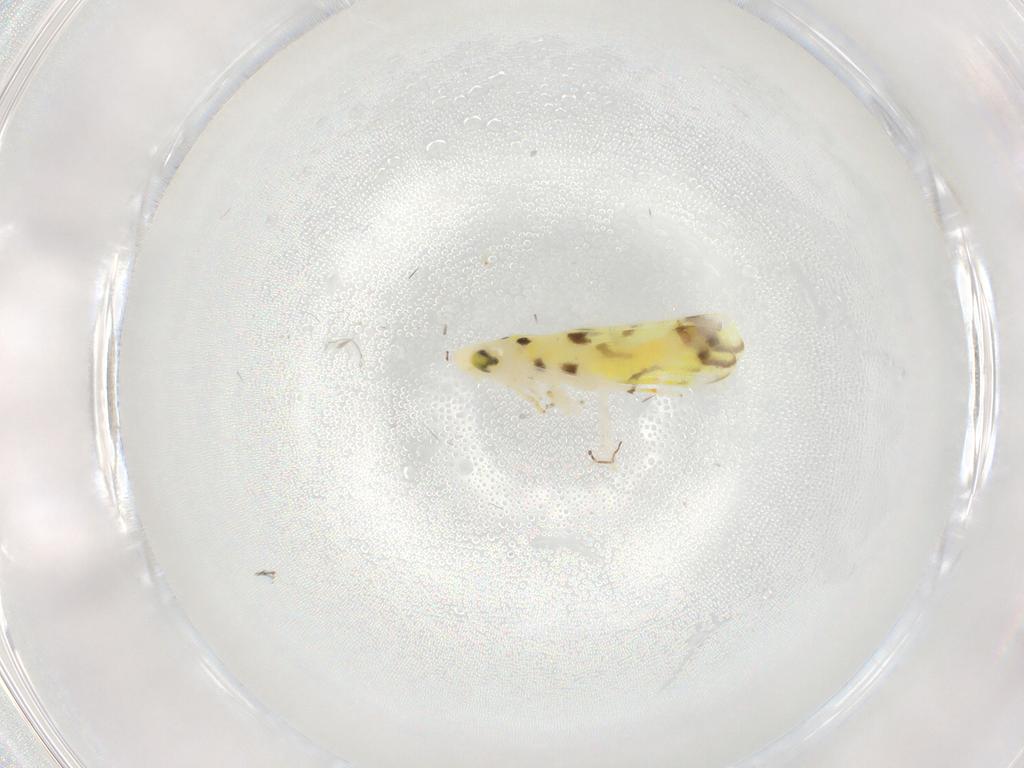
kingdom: Animalia
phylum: Arthropoda
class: Insecta
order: Hemiptera
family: Cicadellidae
